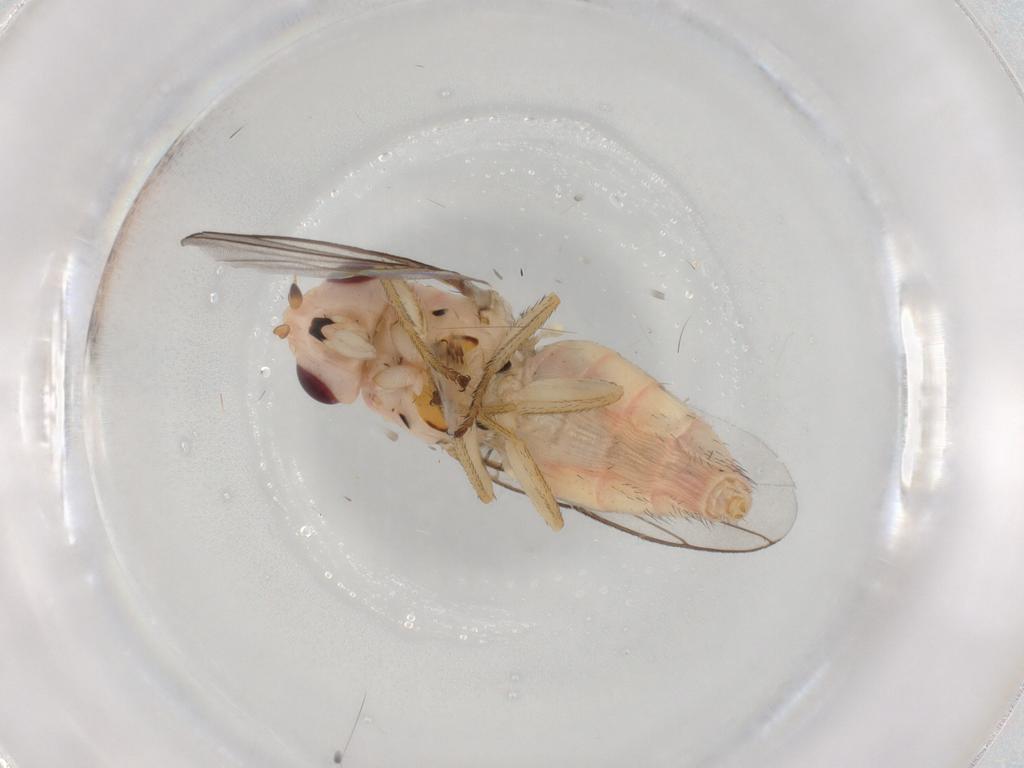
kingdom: Animalia
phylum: Arthropoda
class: Insecta
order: Diptera
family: Chloropidae
